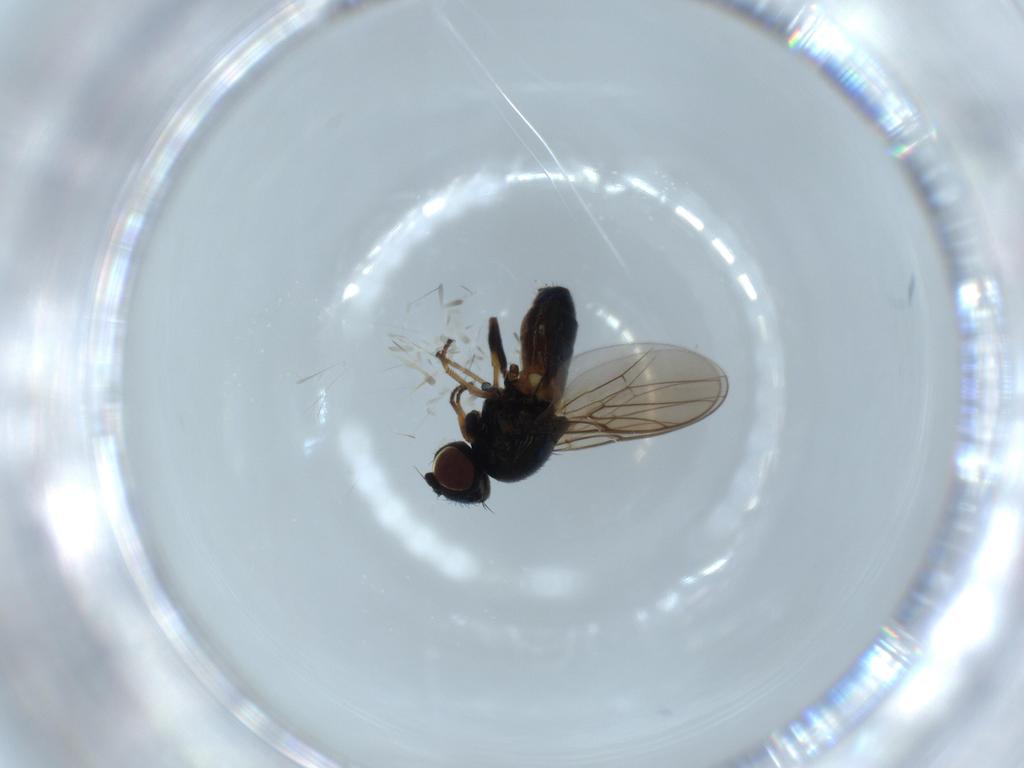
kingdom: Animalia
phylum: Arthropoda
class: Insecta
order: Diptera
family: Chloropidae
